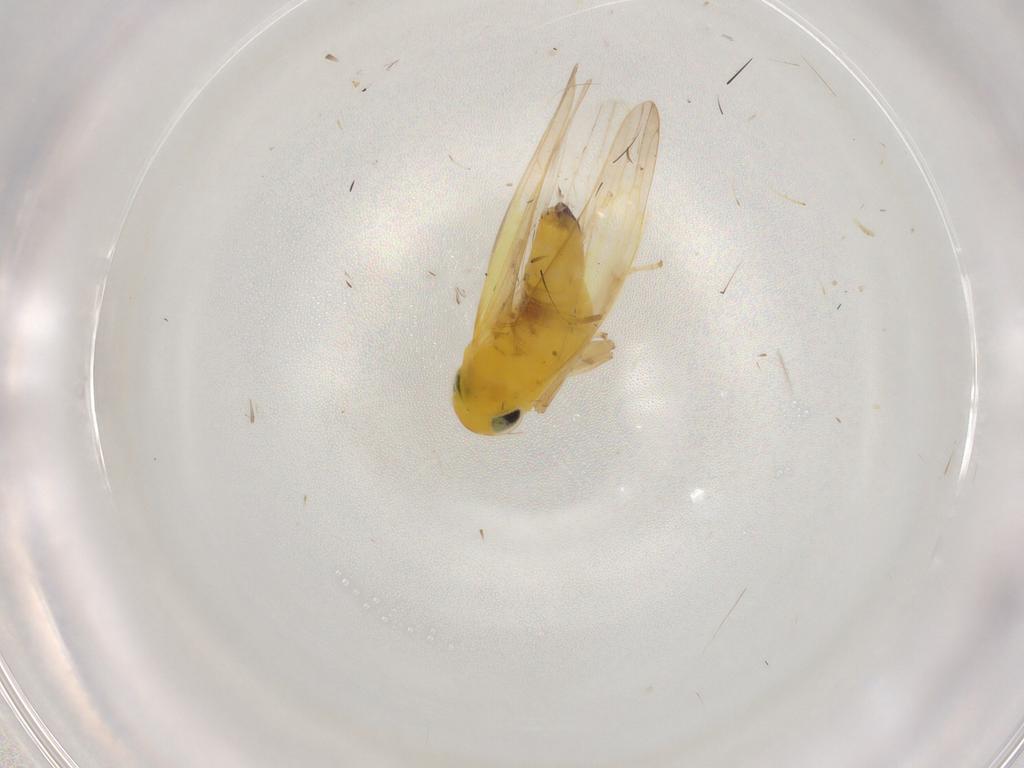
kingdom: Animalia
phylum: Arthropoda
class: Insecta
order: Hemiptera
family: Cicadellidae
